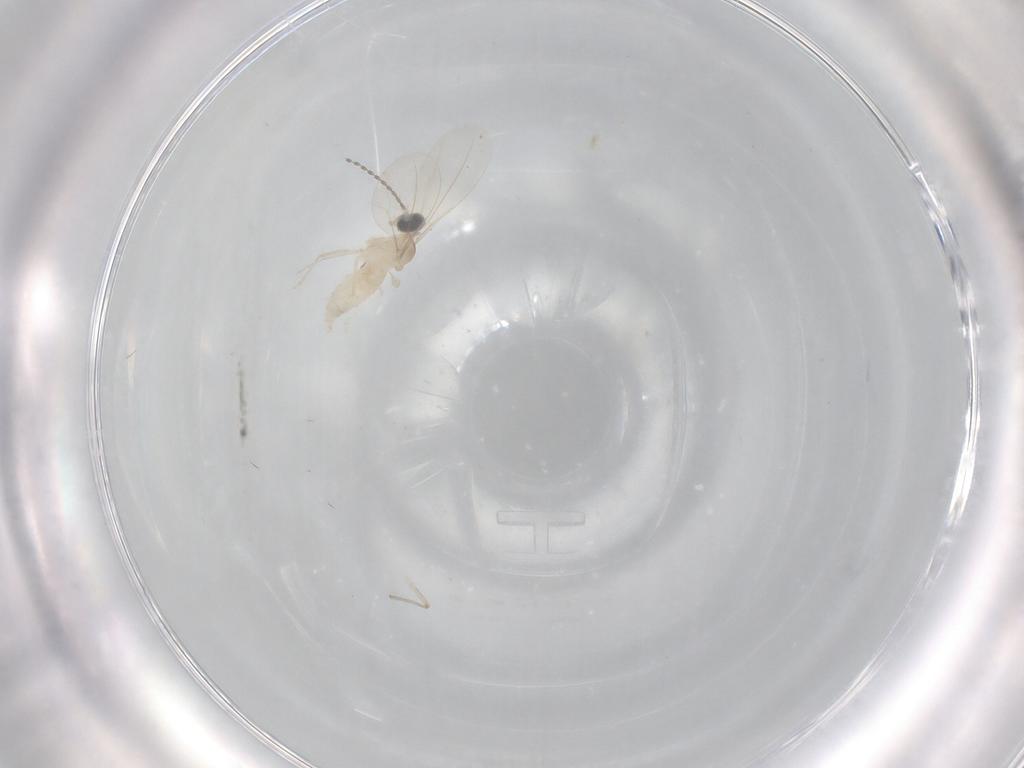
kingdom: Animalia
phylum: Arthropoda
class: Insecta
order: Diptera
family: Cecidomyiidae
